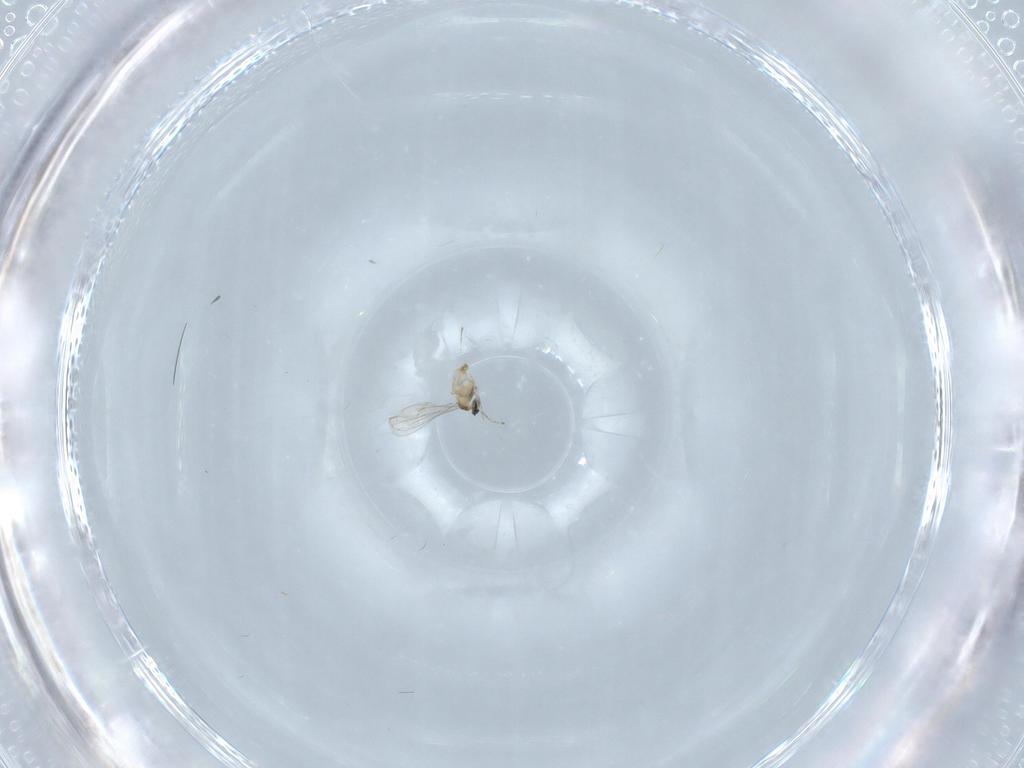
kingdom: Animalia
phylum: Arthropoda
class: Insecta
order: Diptera
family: Cecidomyiidae
